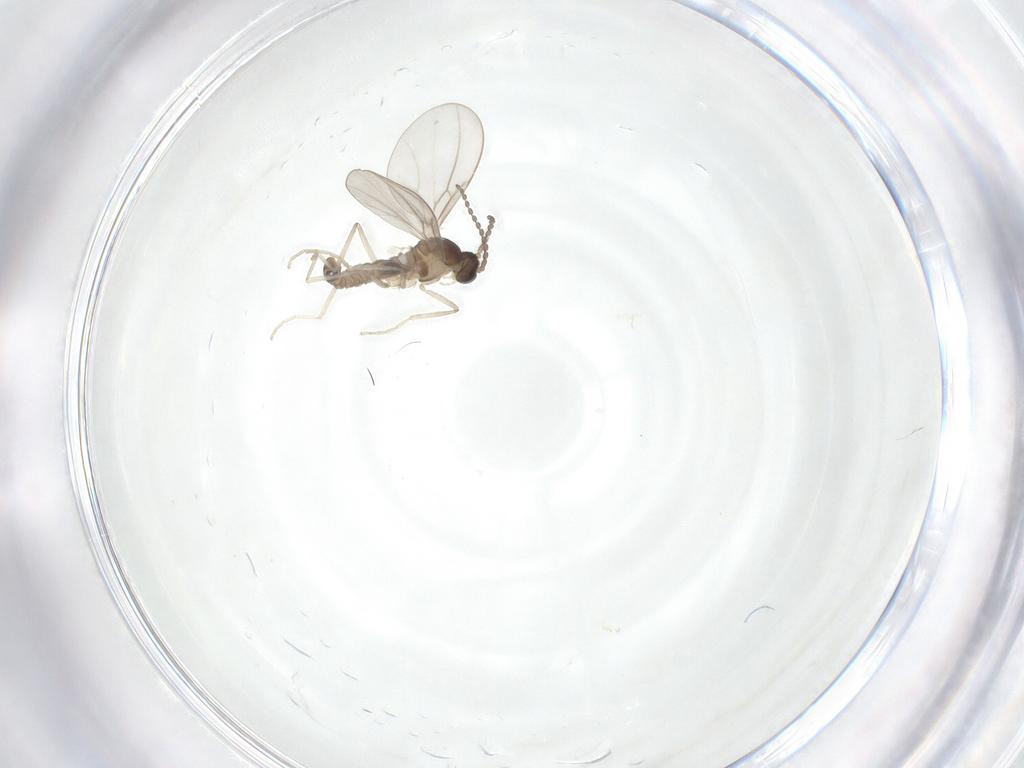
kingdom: Animalia
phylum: Arthropoda
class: Insecta
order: Diptera
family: Cecidomyiidae
